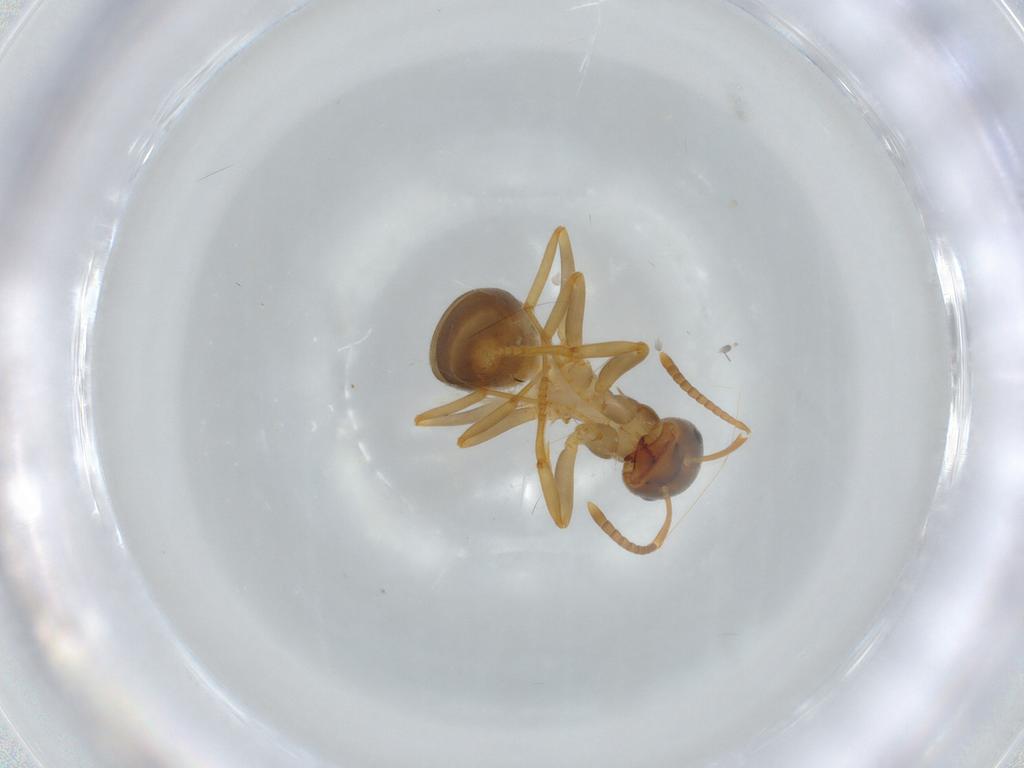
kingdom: Animalia
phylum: Arthropoda
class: Insecta
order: Hymenoptera
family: Formicidae
